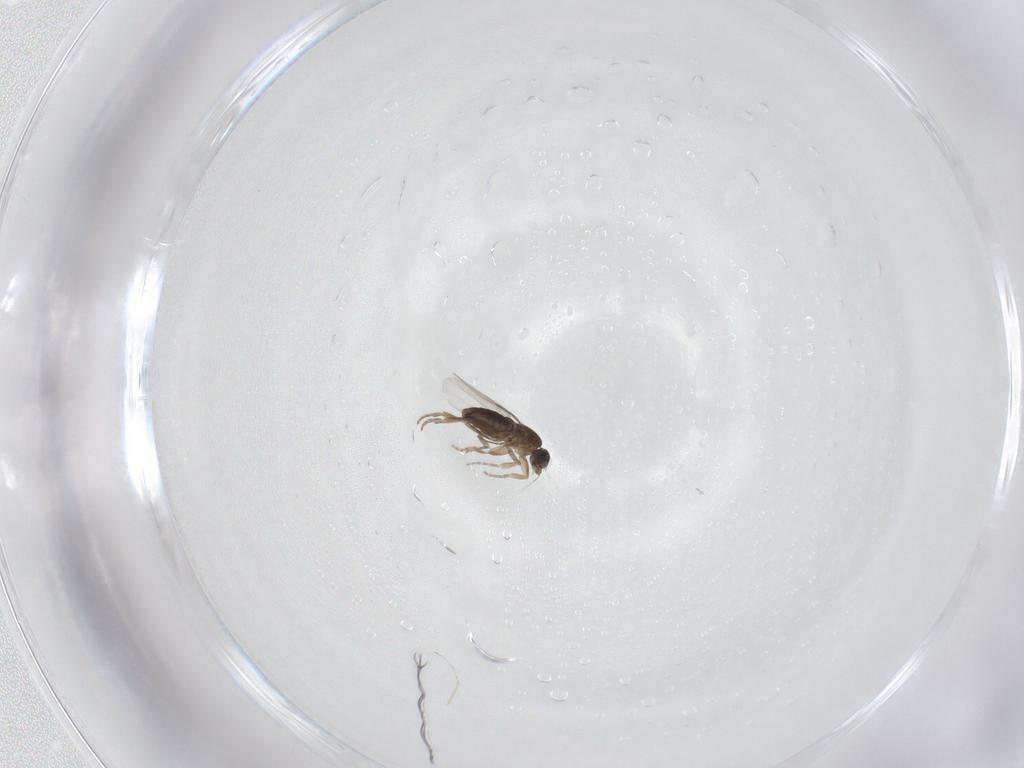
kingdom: Animalia
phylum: Arthropoda
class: Insecta
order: Diptera
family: Phoridae
